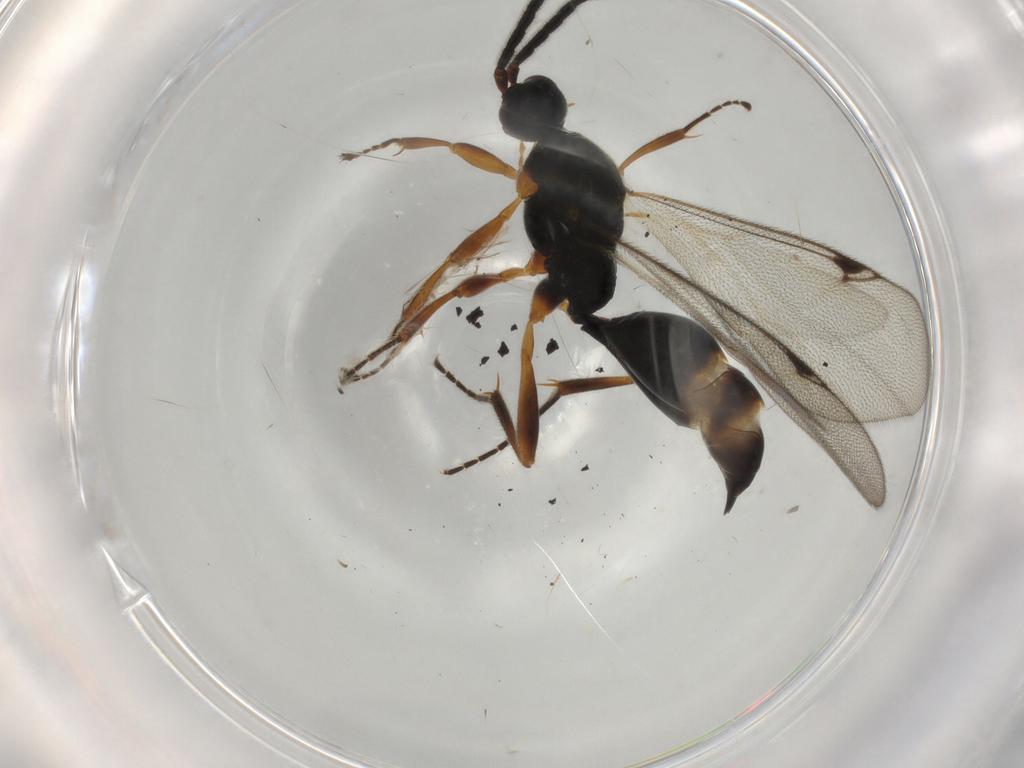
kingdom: Animalia
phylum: Arthropoda
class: Insecta
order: Hymenoptera
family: Proctotrupidae
